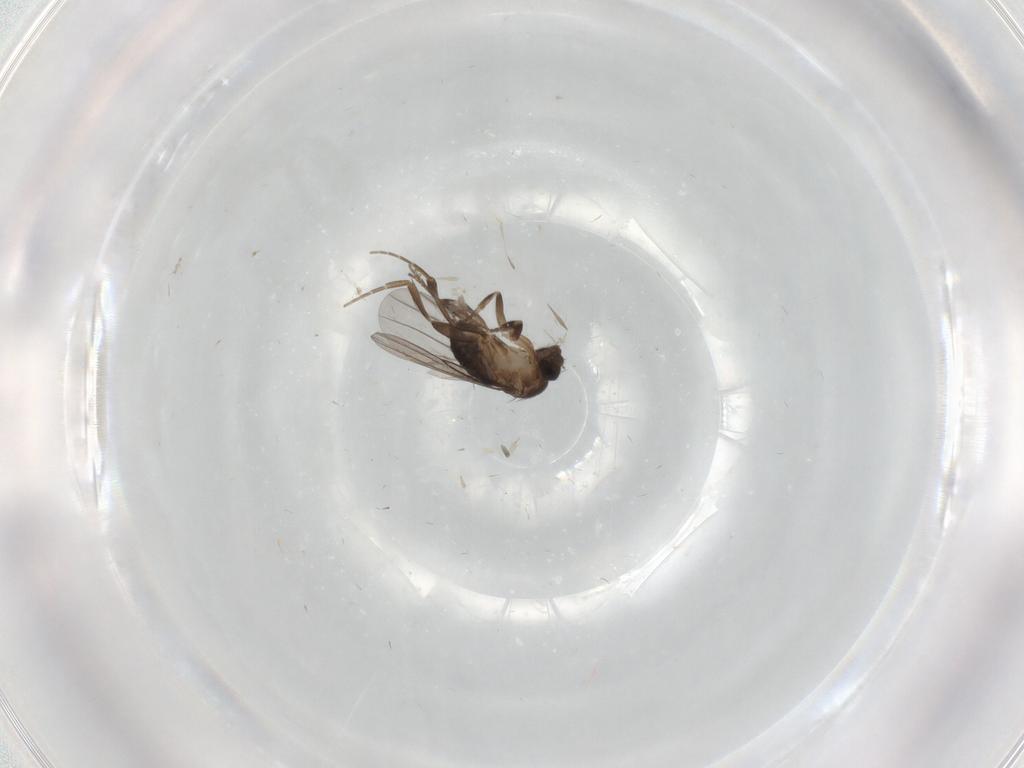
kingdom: Animalia
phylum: Arthropoda
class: Insecta
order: Diptera
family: Phoridae
